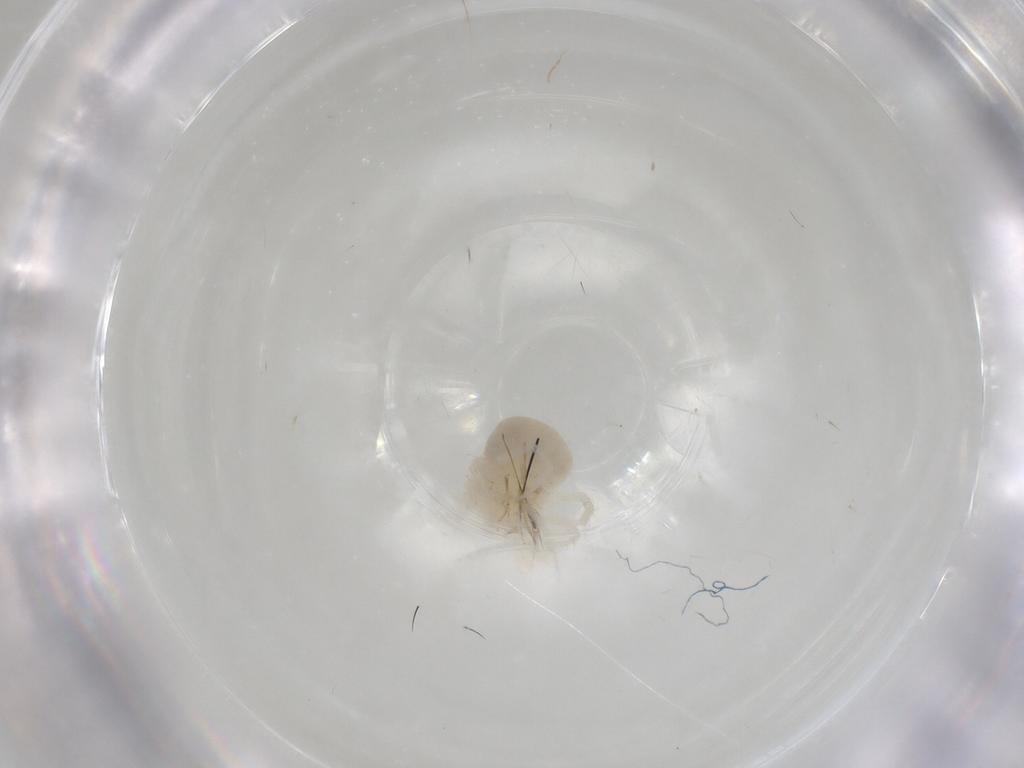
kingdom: Animalia
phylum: Arthropoda
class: Arachnida
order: Trombidiformes
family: Anystidae
